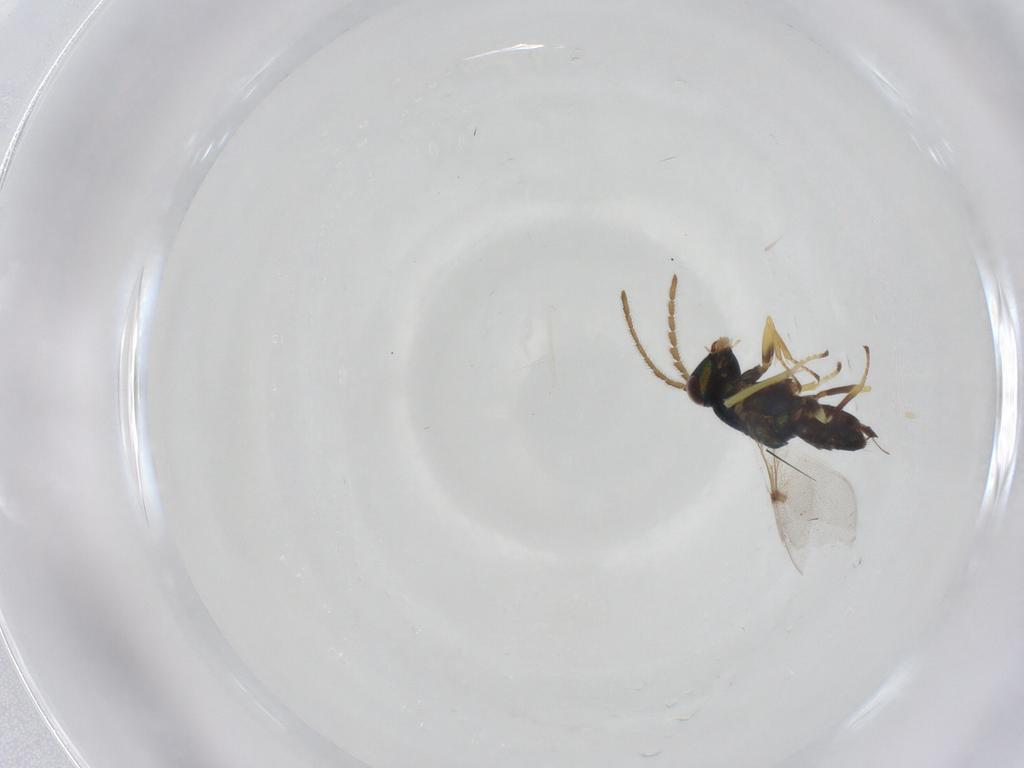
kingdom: Animalia
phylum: Arthropoda
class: Insecta
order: Hymenoptera
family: Encyrtidae
